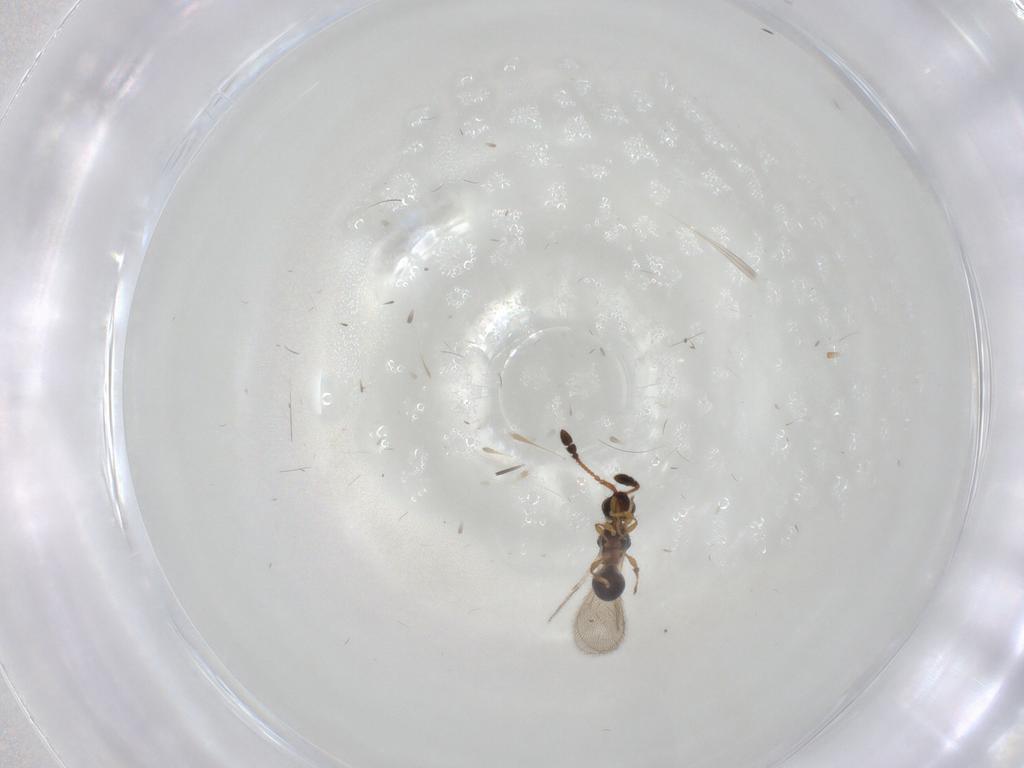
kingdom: Animalia
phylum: Arthropoda
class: Insecta
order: Hymenoptera
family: Diapriidae
